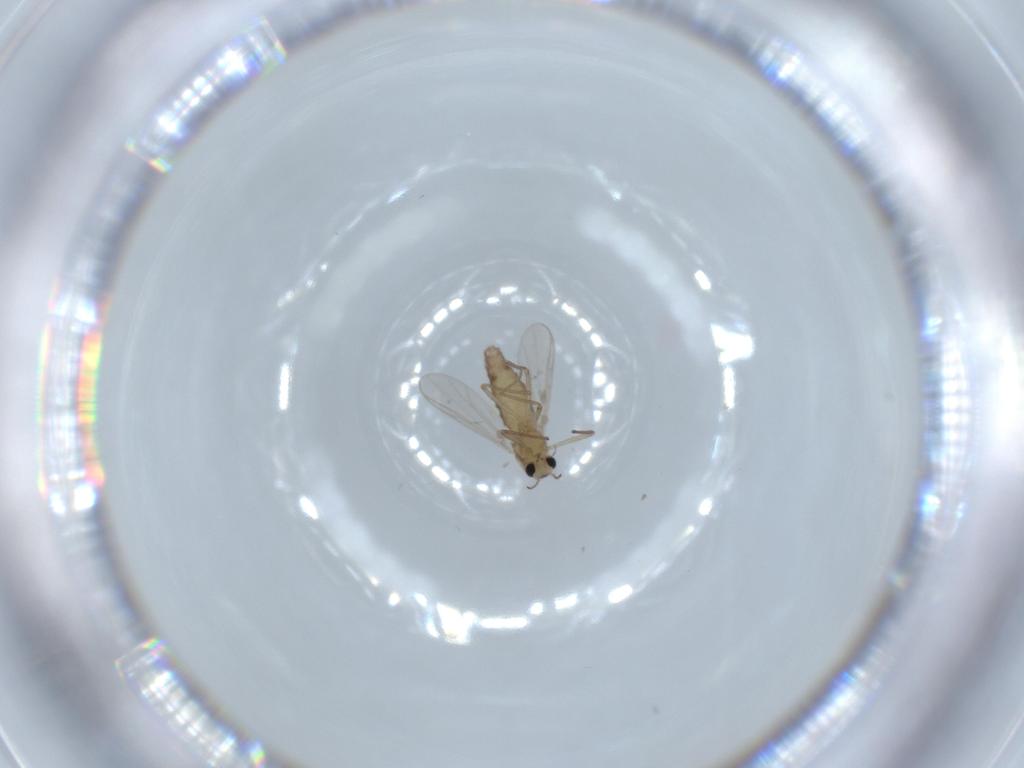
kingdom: Animalia
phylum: Arthropoda
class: Insecta
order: Diptera
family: Chironomidae
